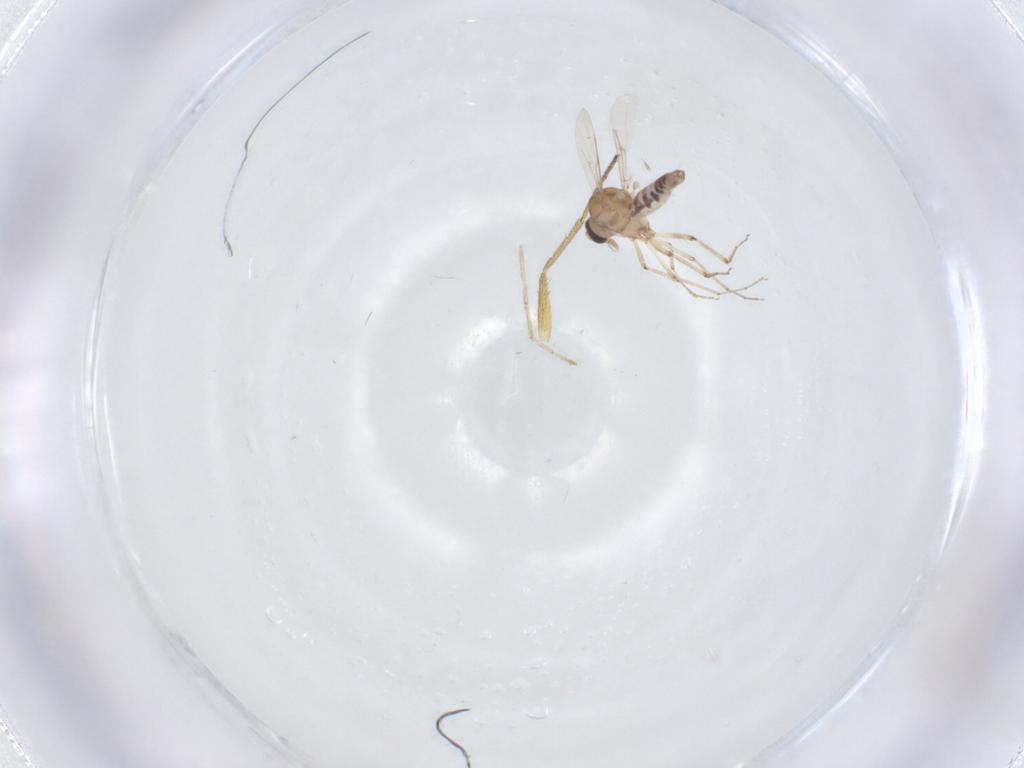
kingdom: Animalia
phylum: Arthropoda
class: Insecta
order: Diptera
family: Ceratopogonidae
